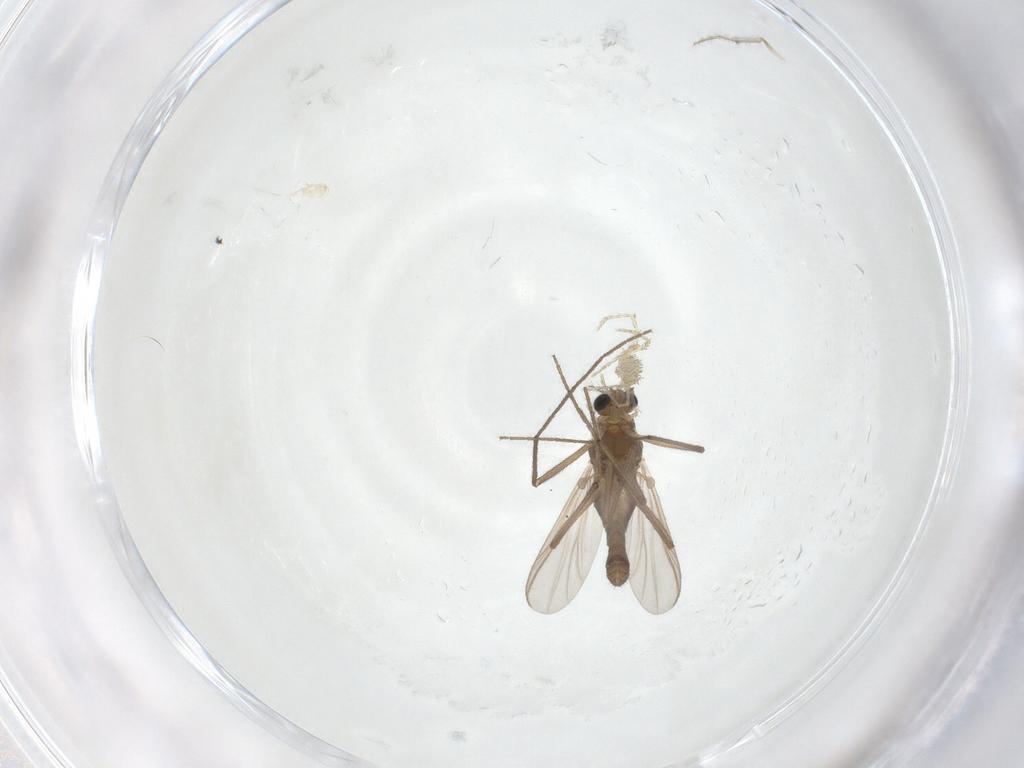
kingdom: Animalia
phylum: Arthropoda
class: Insecta
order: Diptera
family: Chironomidae
